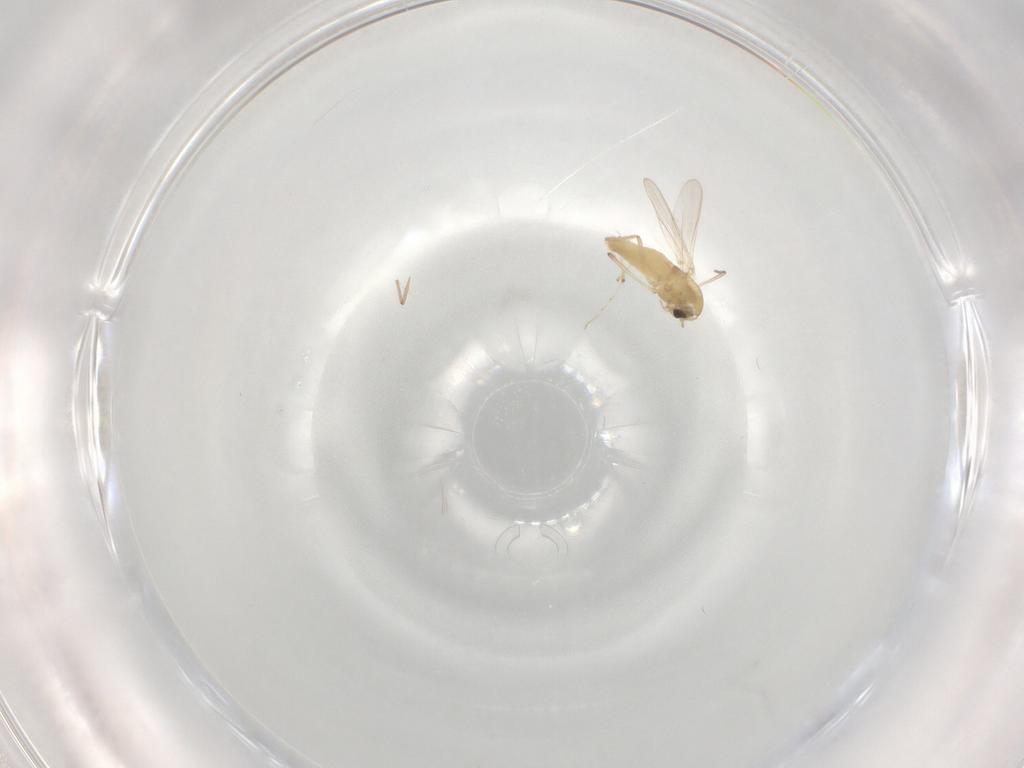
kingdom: Animalia
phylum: Arthropoda
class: Insecta
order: Diptera
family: Chironomidae
